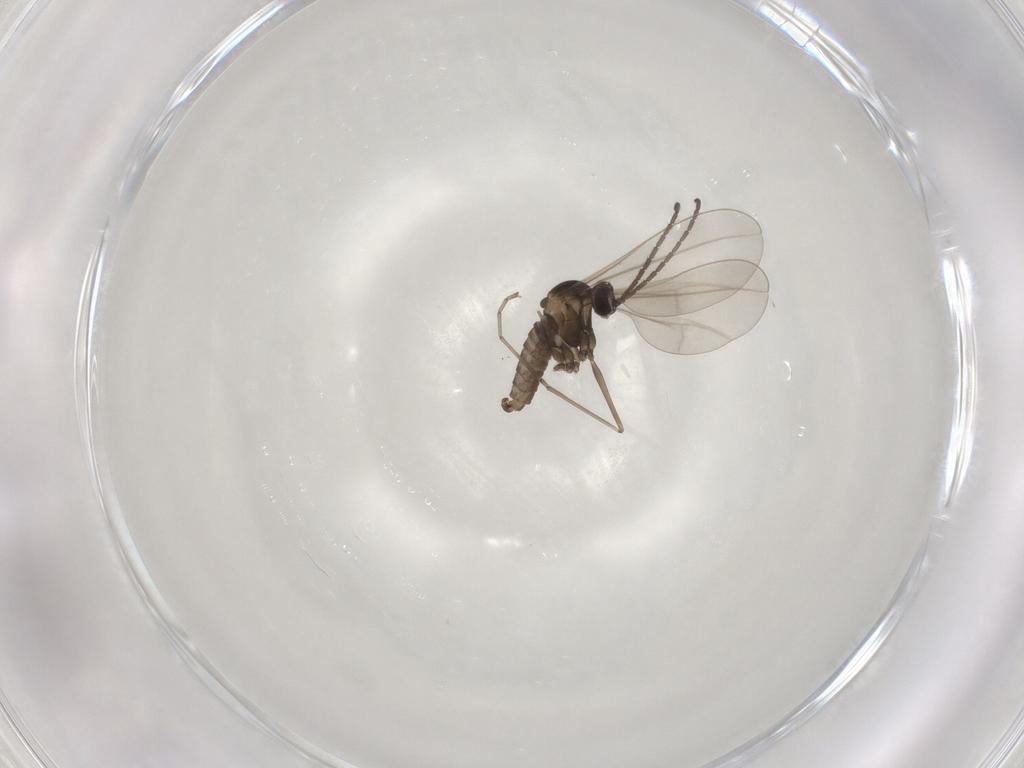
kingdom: Animalia
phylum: Arthropoda
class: Insecta
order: Diptera
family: Cecidomyiidae
